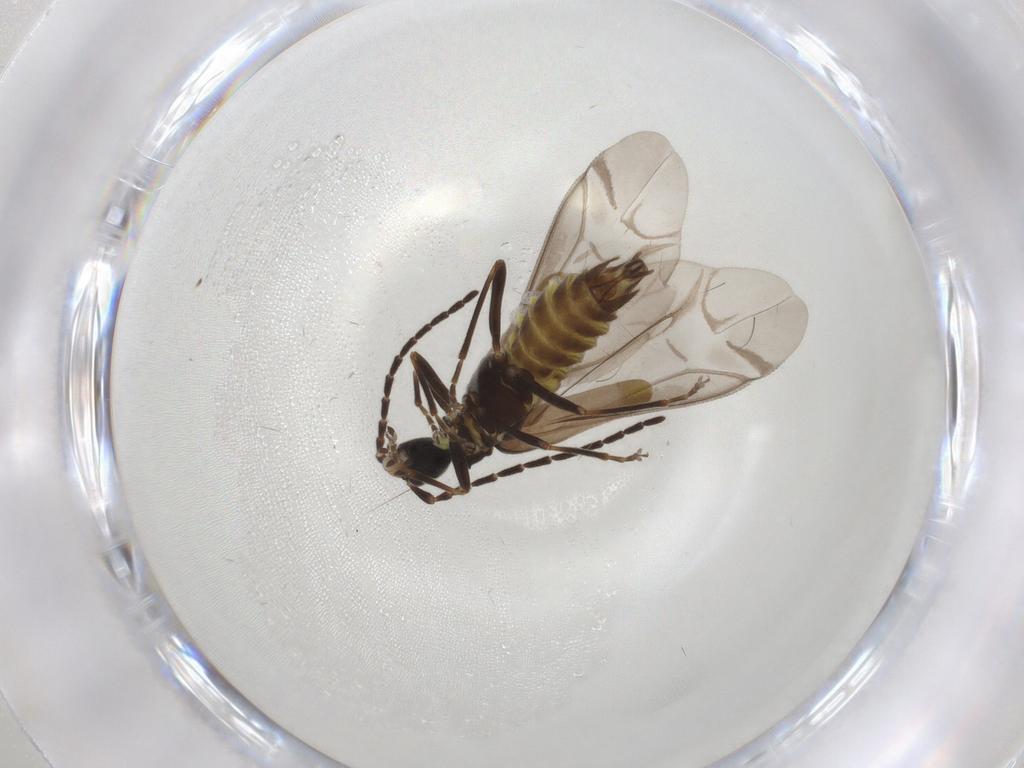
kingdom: Animalia
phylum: Arthropoda
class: Insecta
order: Coleoptera
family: Cantharidae
